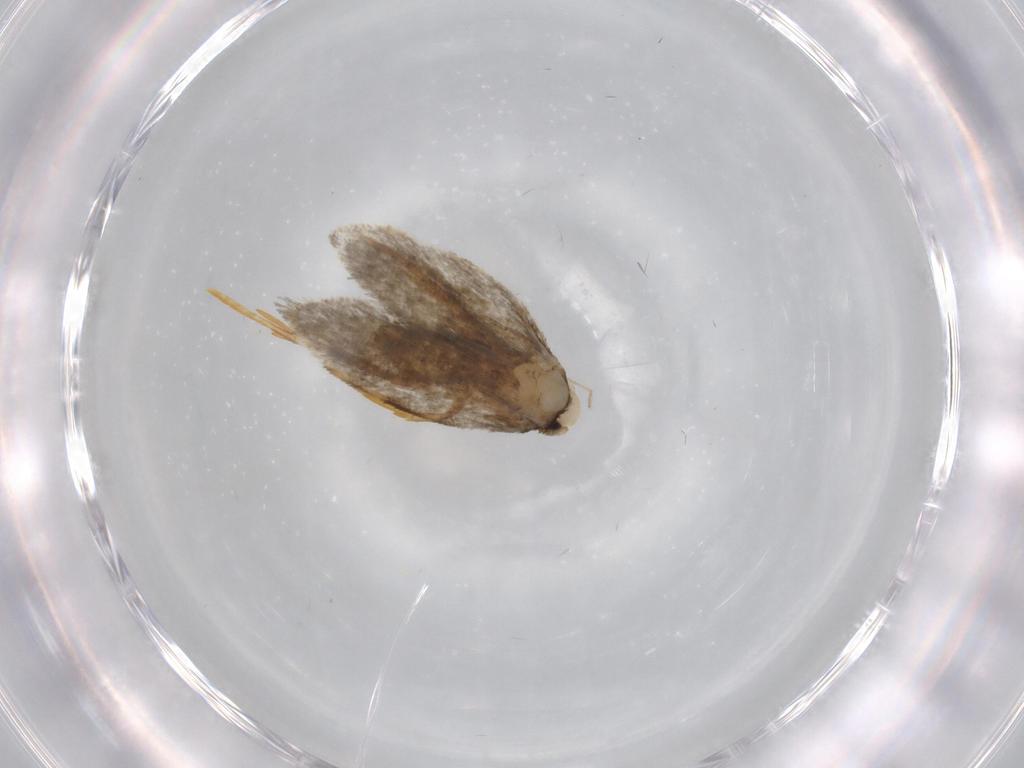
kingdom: Animalia
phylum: Arthropoda
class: Insecta
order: Lepidoptera
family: Psychidae
